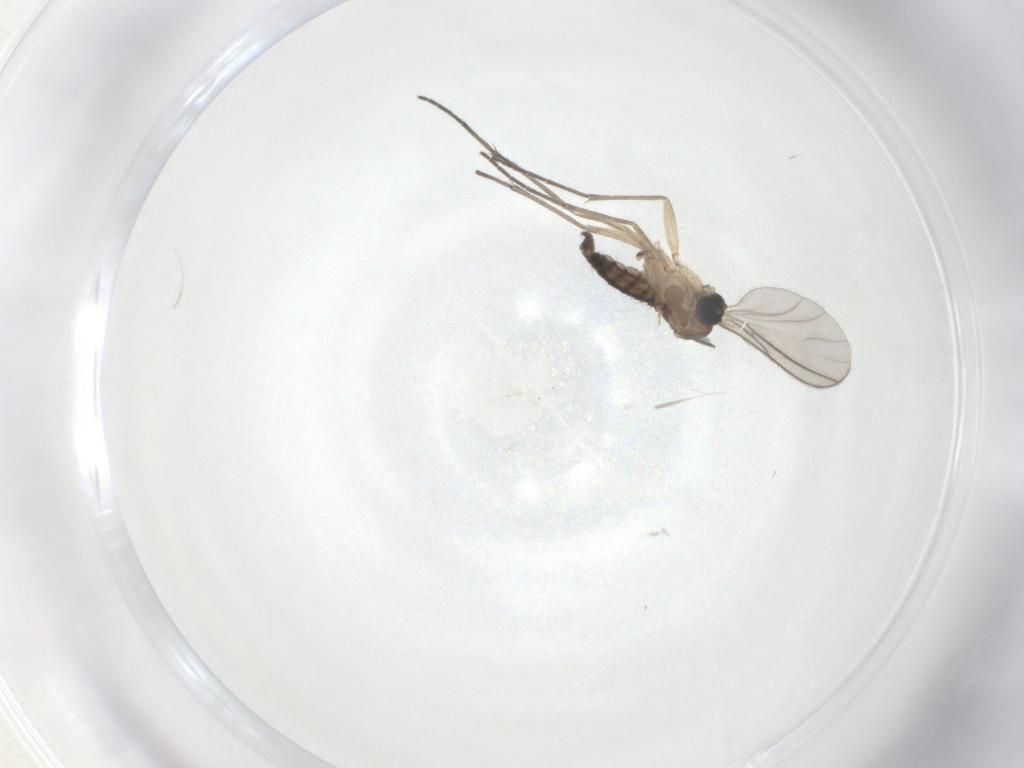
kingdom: Animalia
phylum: Arthropoda
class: Insecta
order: Diptera
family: Sciaridae
